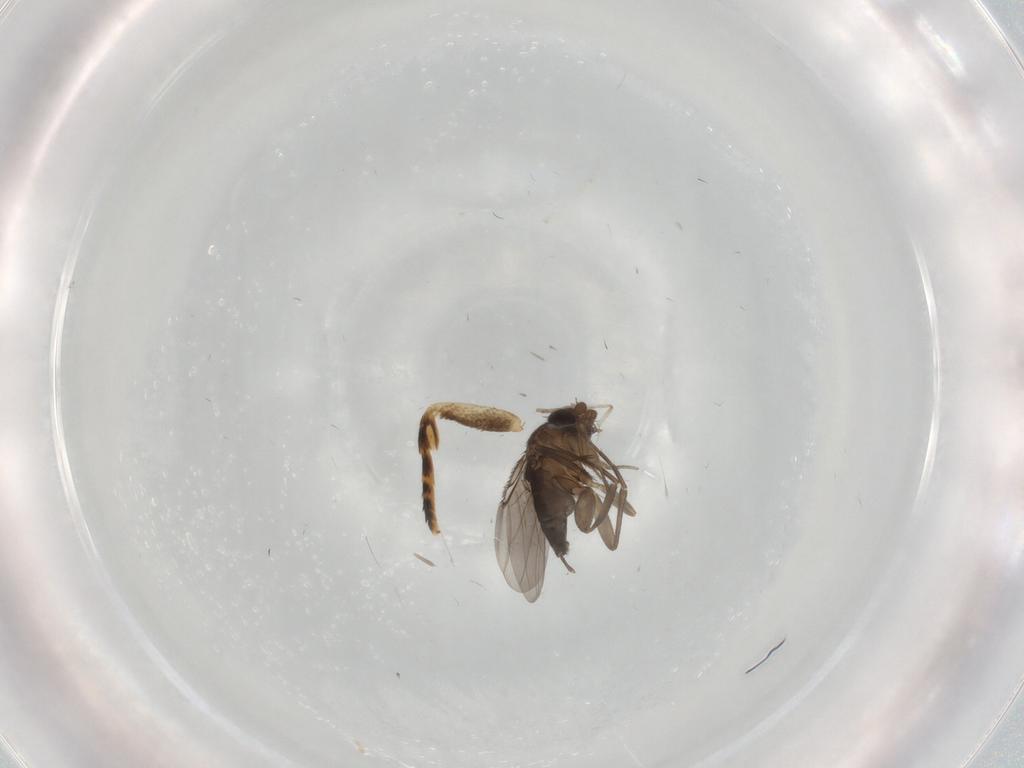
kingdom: Animalia
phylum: Arthropoda
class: Insecta
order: Diptera
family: Phoridae
